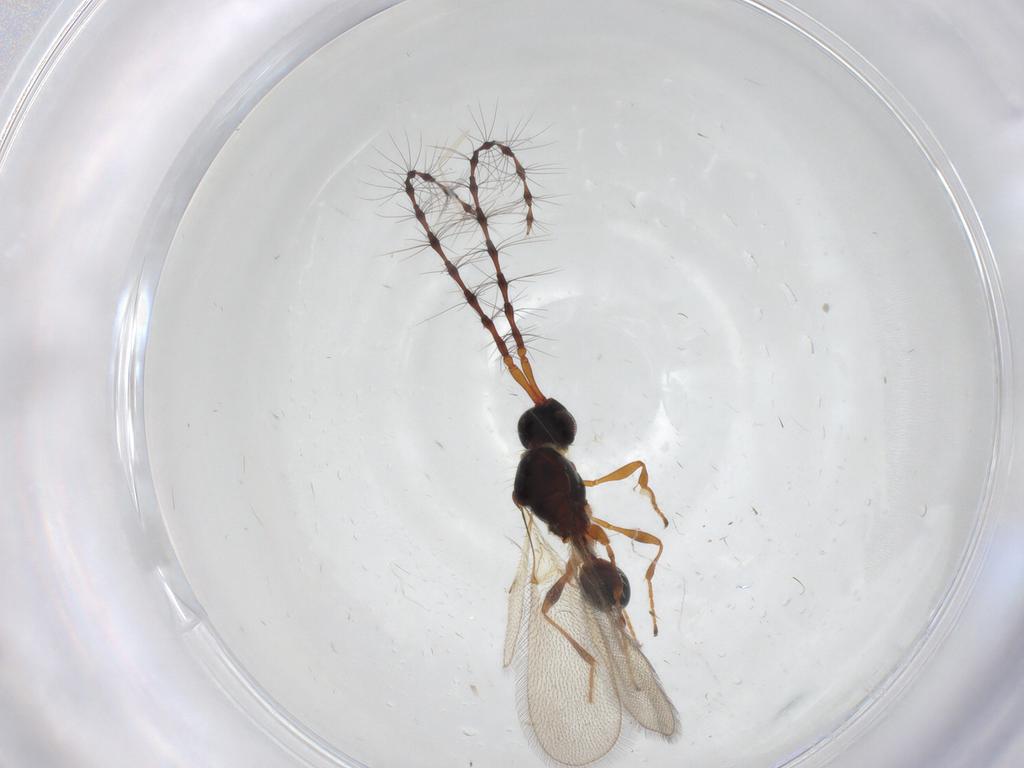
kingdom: Animalia
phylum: Arthropoda
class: Insecta
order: Hymenoptera
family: Diapriidae
